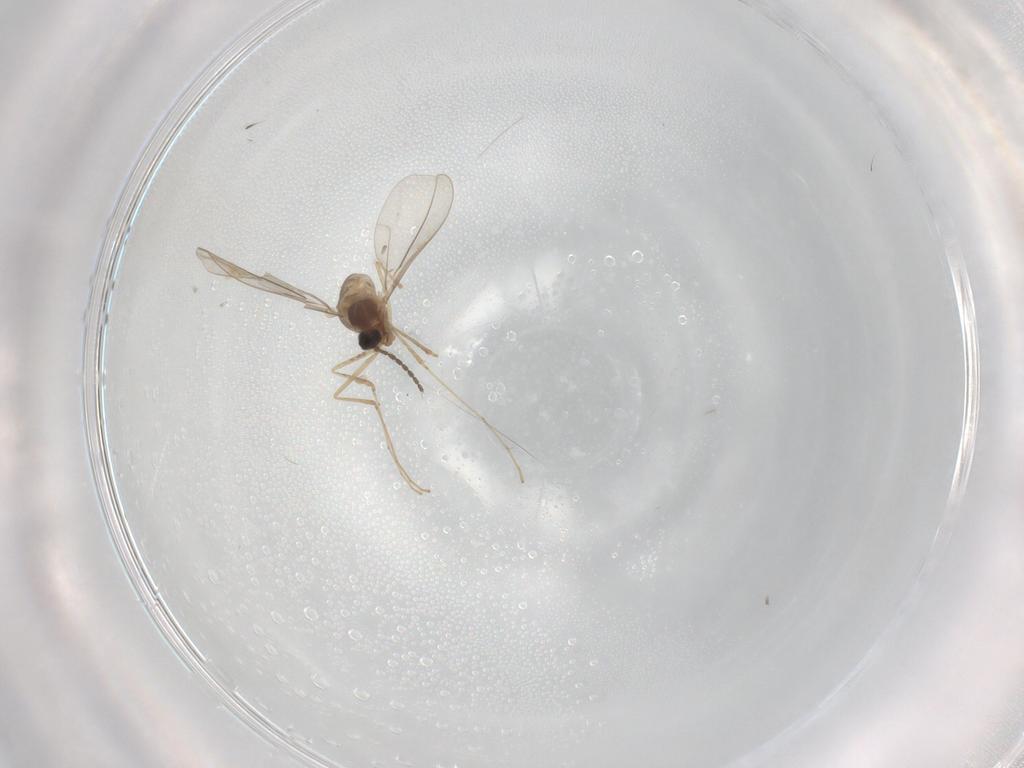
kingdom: Animalia
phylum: Arthropoda
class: Insecta
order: Diptera
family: Cecidomyiidae
